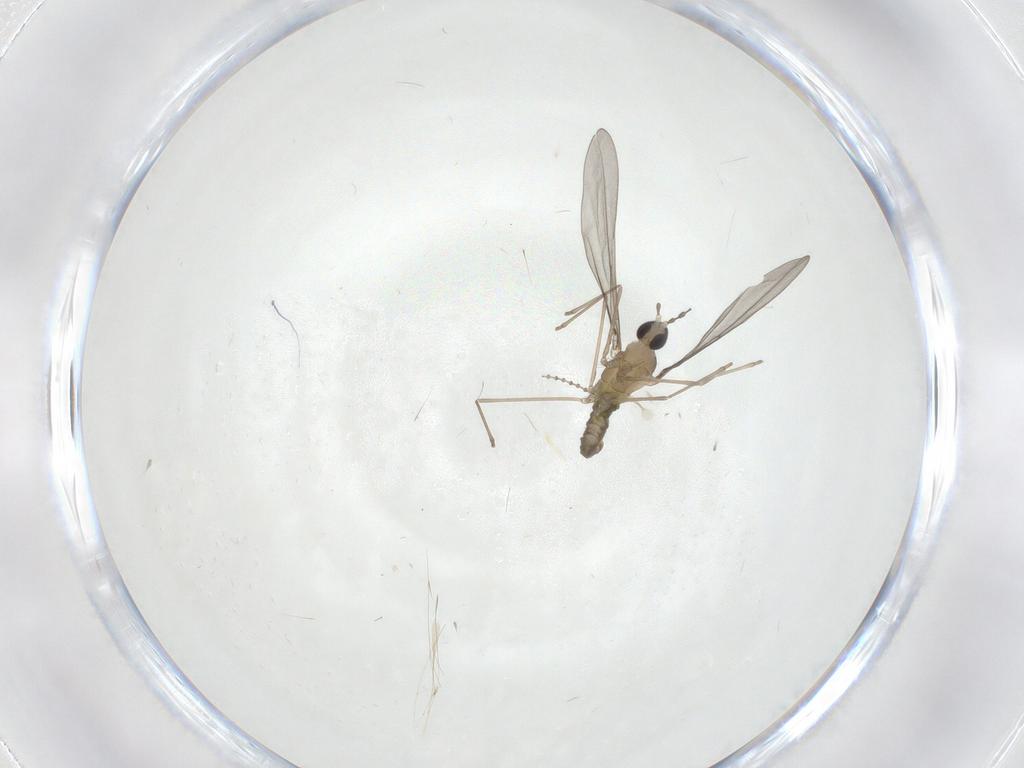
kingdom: Animalia
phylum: Arthropoda
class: Insecta
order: Diptera
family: Cecidomyiidae
